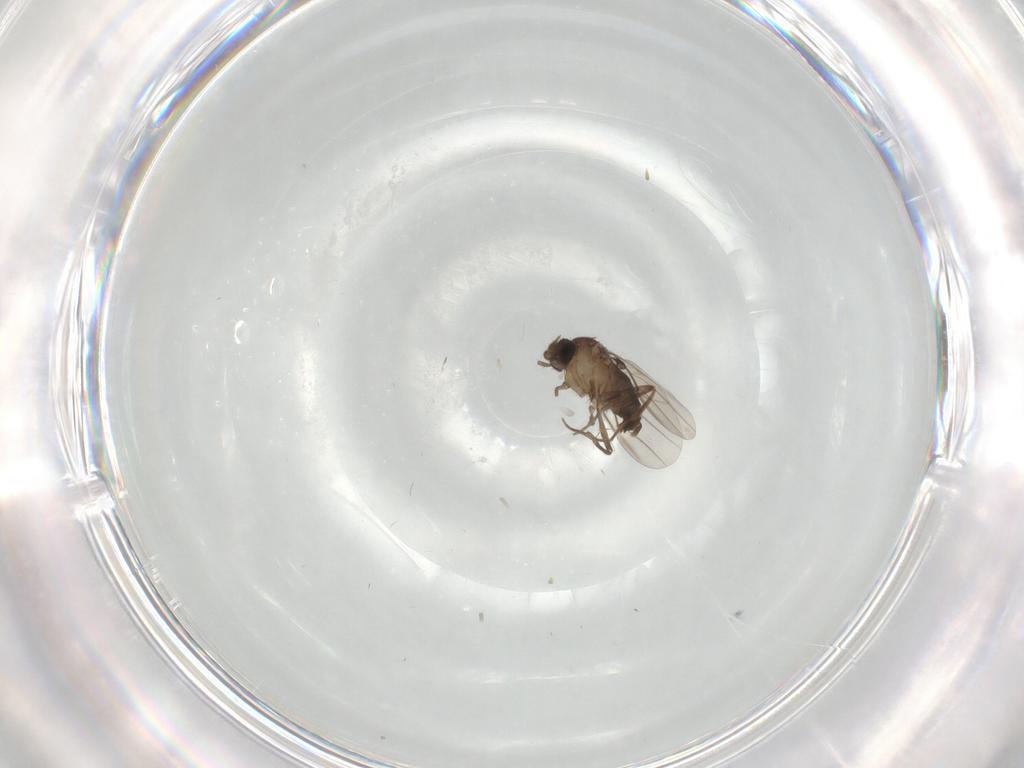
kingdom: Animalia
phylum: Arthropoda
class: Insecta
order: Diptera
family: Phoridae
